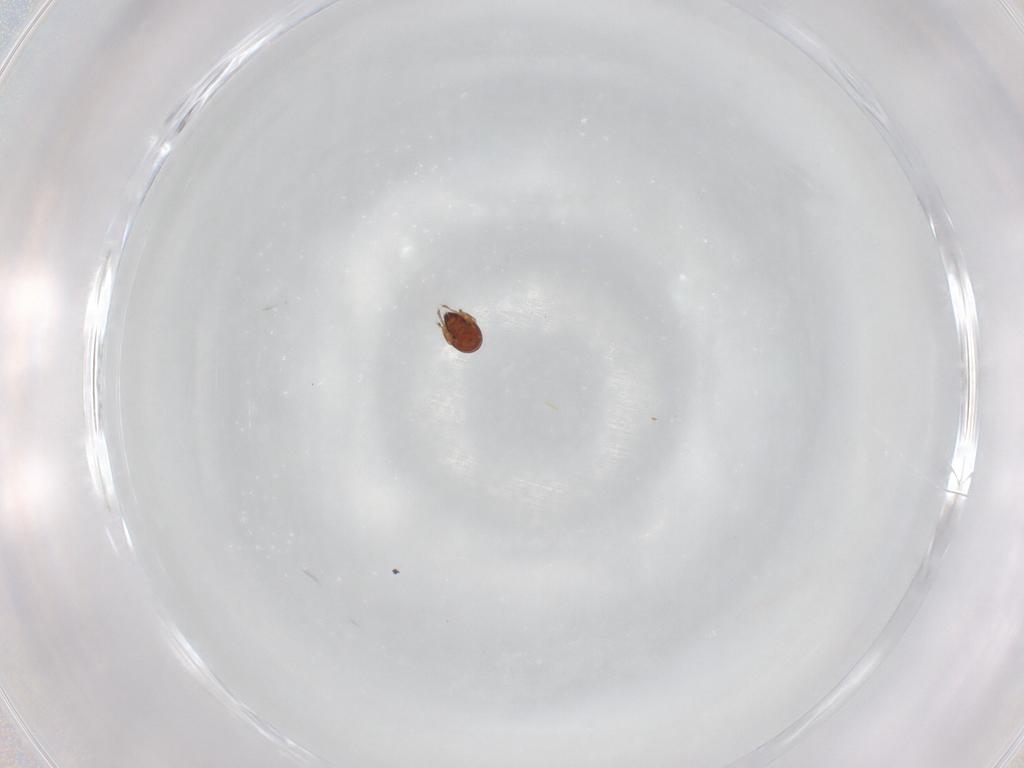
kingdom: Animalia
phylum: Arthropoda
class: Arachnida
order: Sarcoptiformes
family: Tegoribatidae
